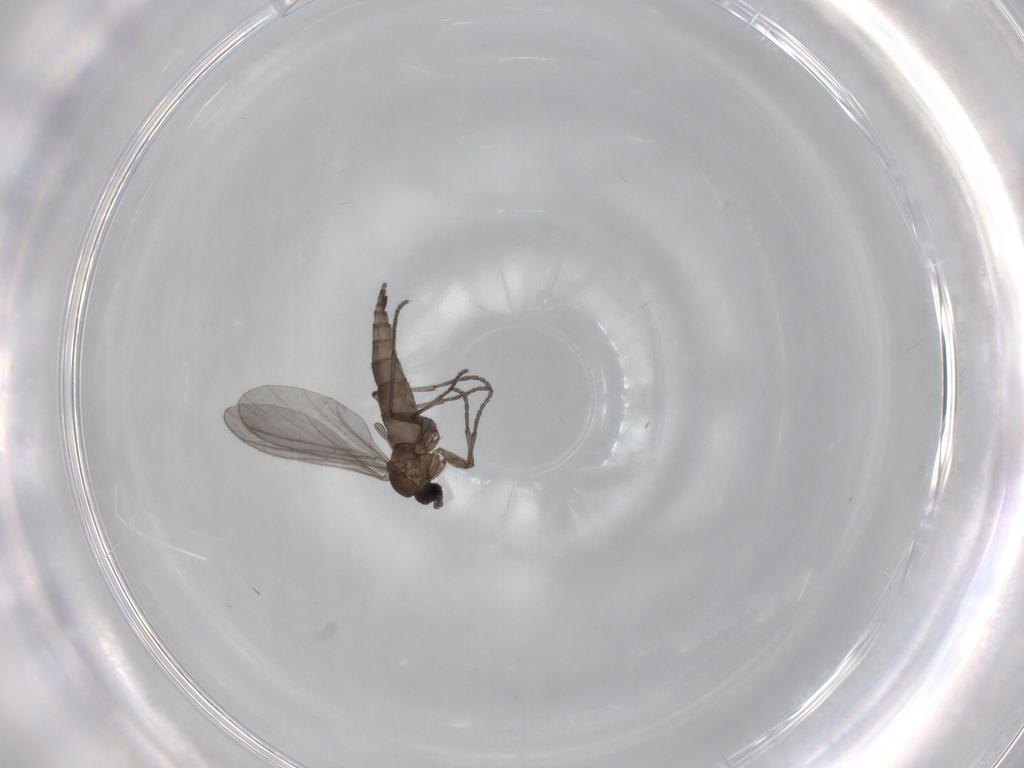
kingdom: Animalia
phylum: Arthropoda
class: Insecta
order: Diptera
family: Sciaridae
